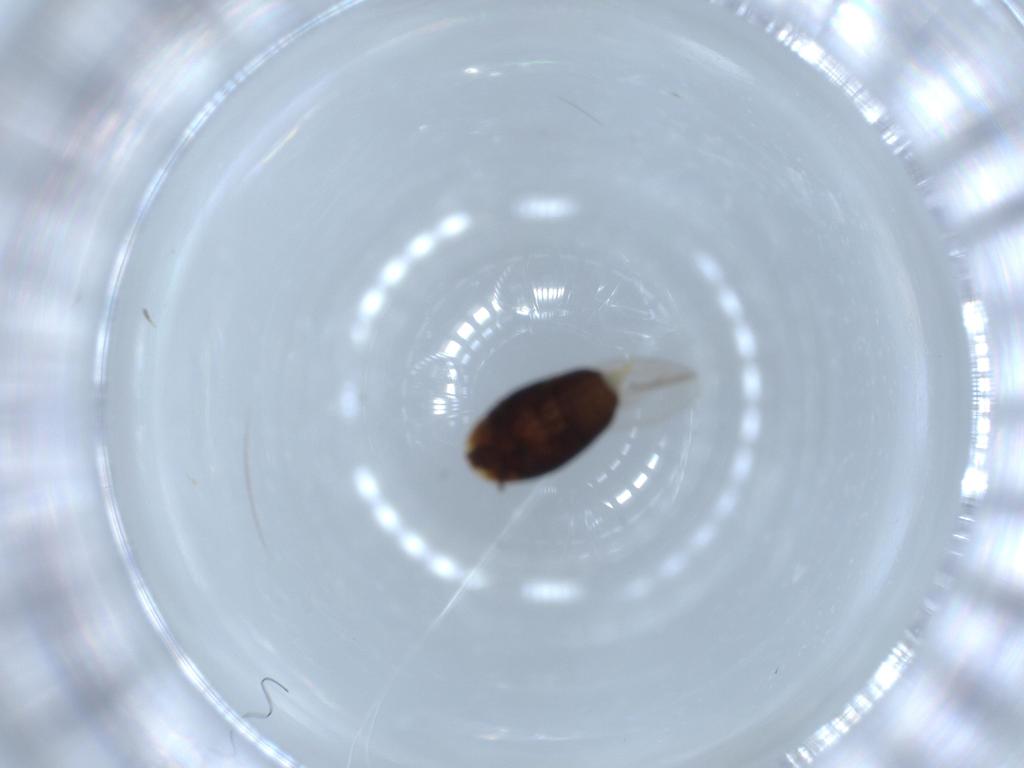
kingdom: Animalia
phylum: Arthropoda
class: Insecta
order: Coleoptera
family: Corylophidae
